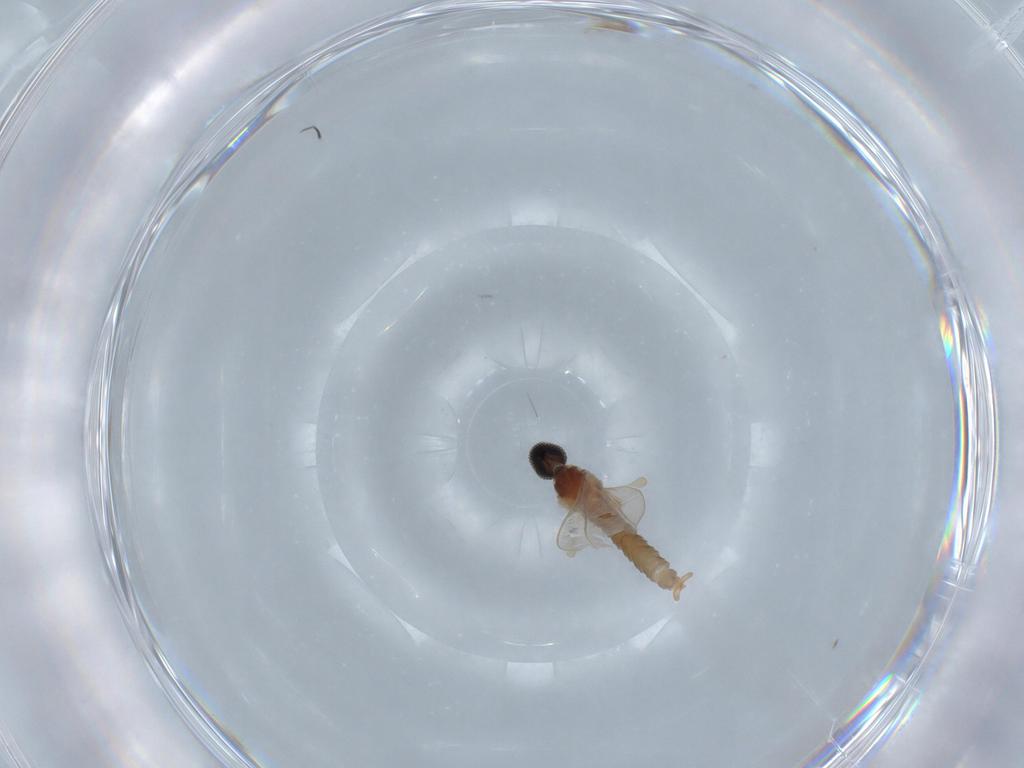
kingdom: Animalia
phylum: Arthropoda
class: Insecta
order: Diptera
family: Cecidomyiidae
